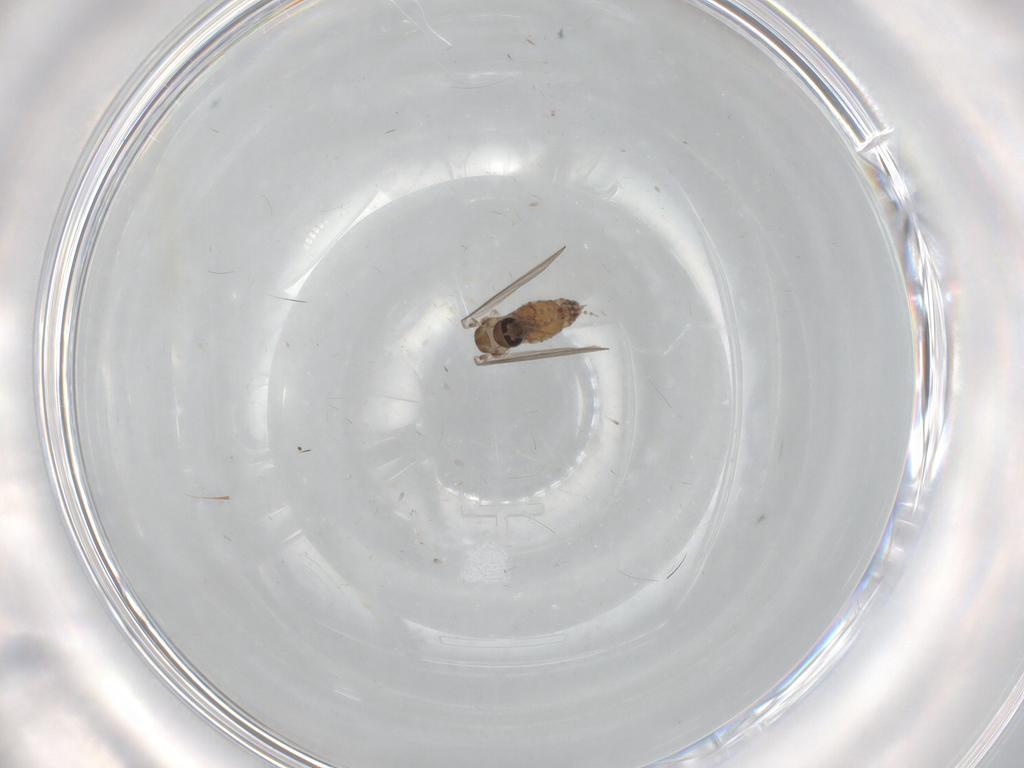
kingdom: Animalia
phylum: Arthropoda
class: Insecta
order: Diptera
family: Psychodidae
